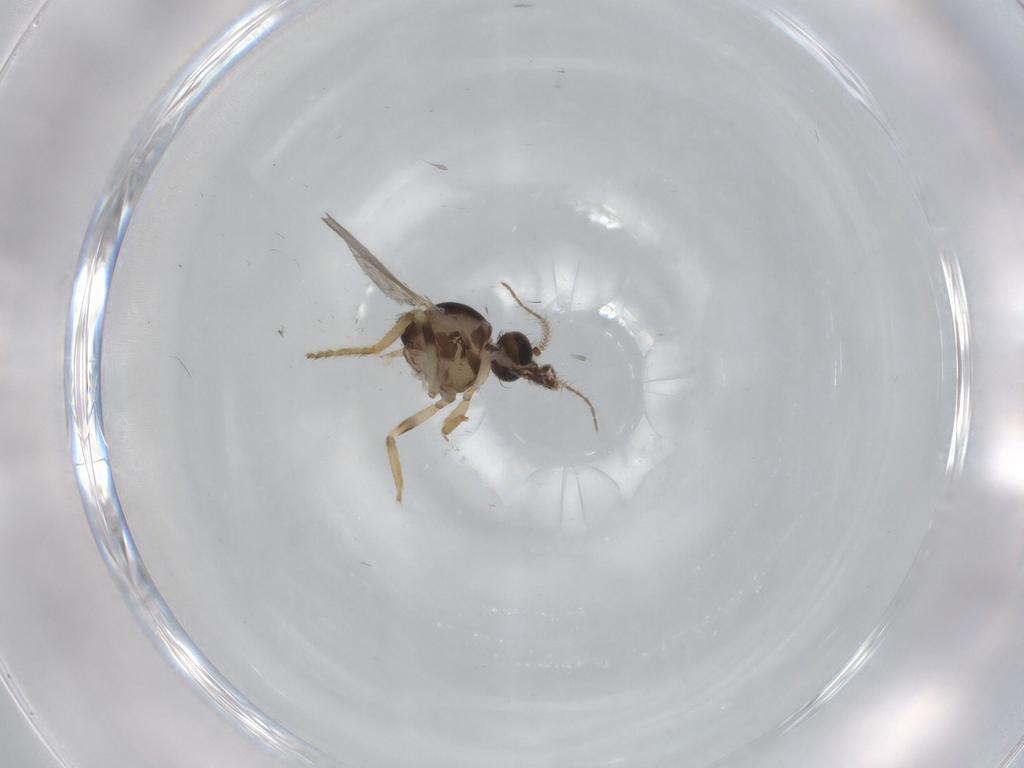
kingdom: Animalia
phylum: Arthropoda
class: Insecta
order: Diptera
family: Ceratopogonidae
